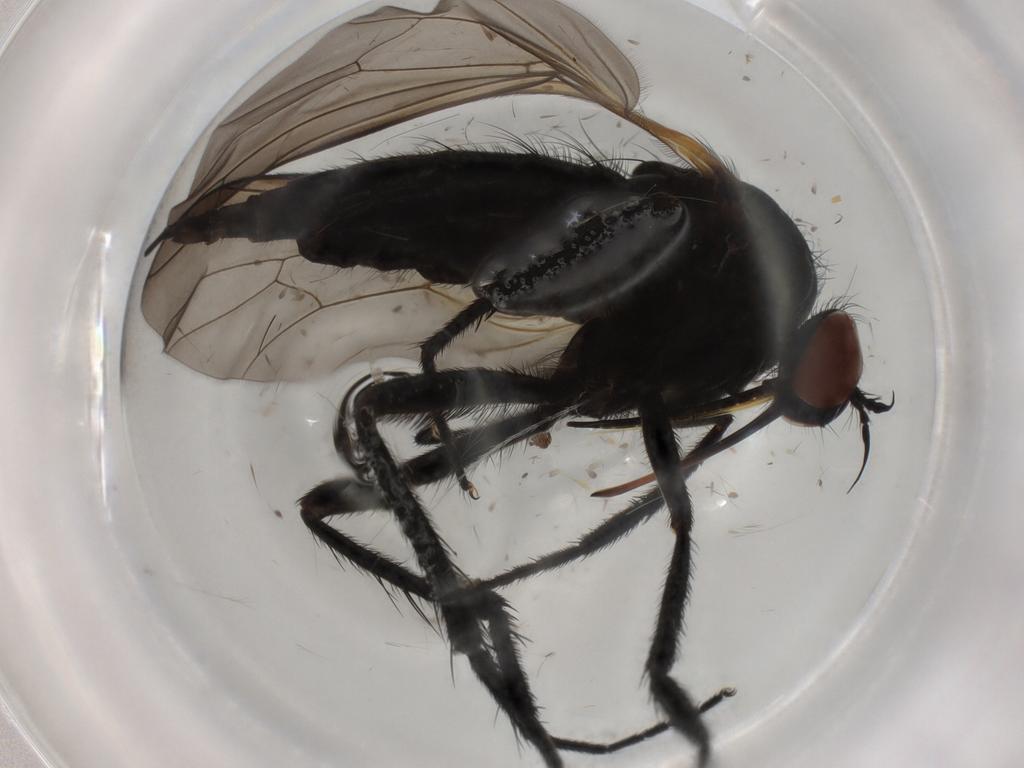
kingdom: Animalia
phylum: Arthropoda
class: Insecta
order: Diptera
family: Empididae
